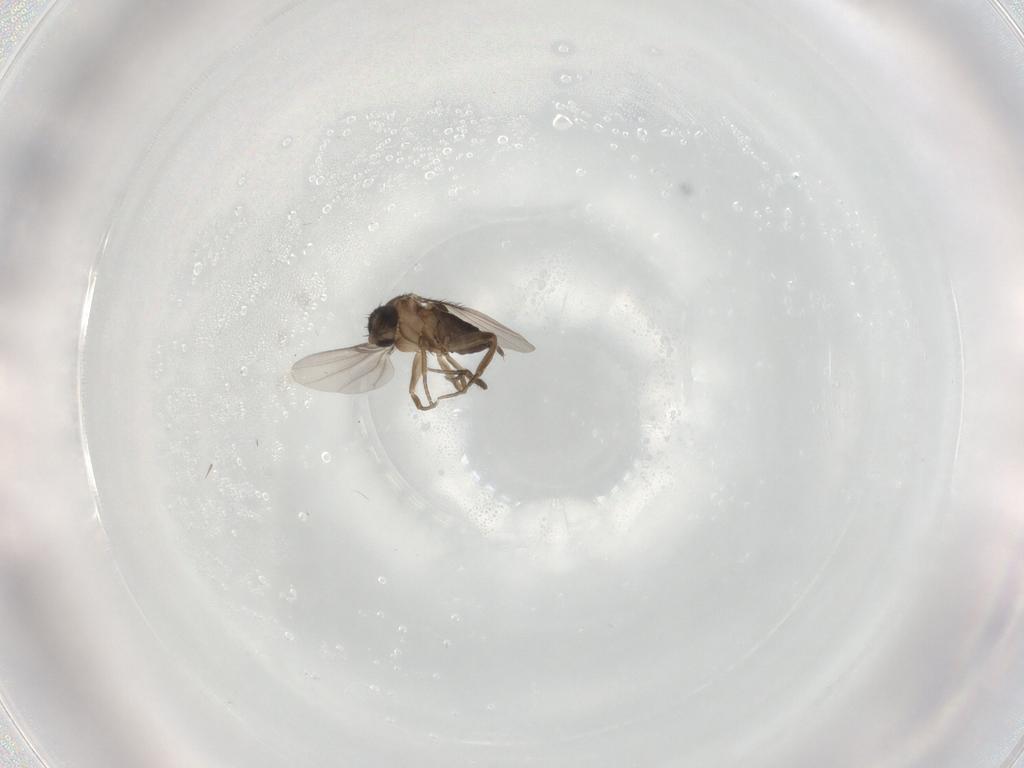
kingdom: Animalia
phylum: Arthropoda
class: Insecta
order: Diptera
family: Phoridae
